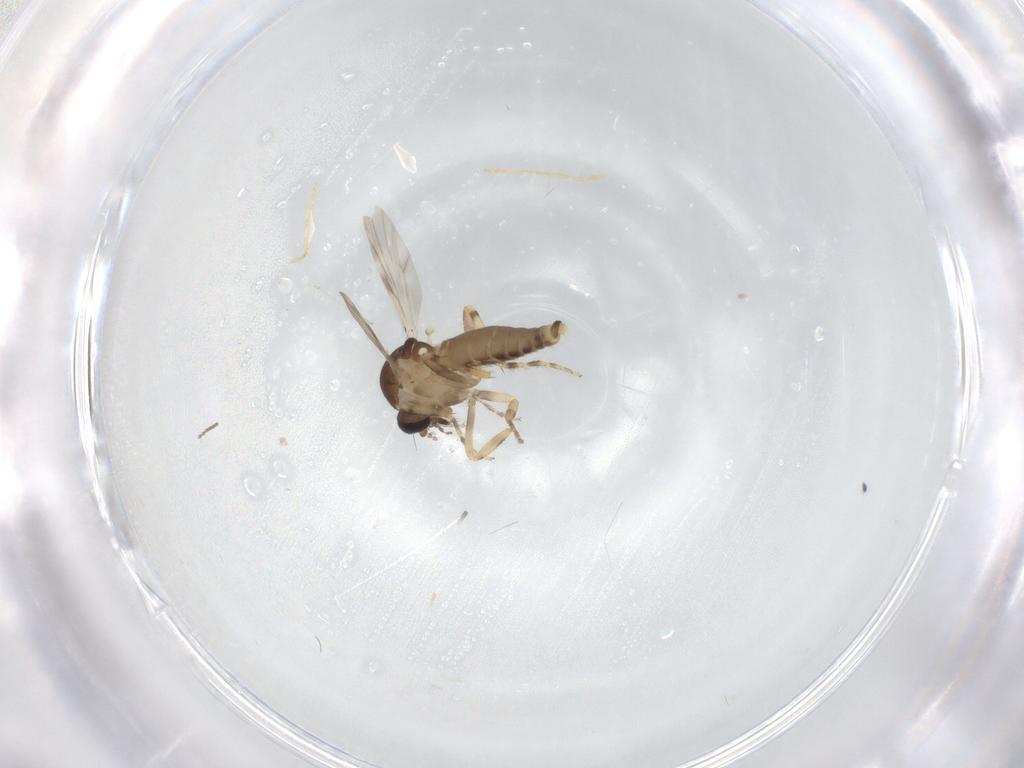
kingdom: Animalia
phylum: Arthropoda
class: Insecta
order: Diptera
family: Ceratopogonidae
